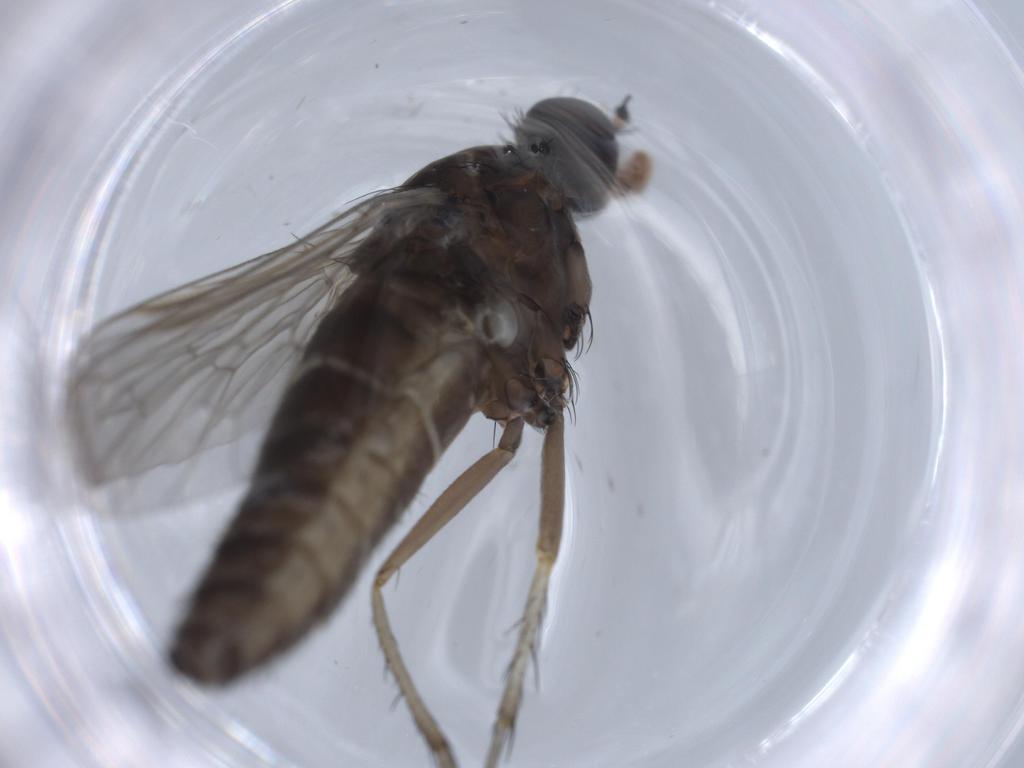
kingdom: Animalia
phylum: Arthropoda
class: Insecta
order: Diptera
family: Therevidae
